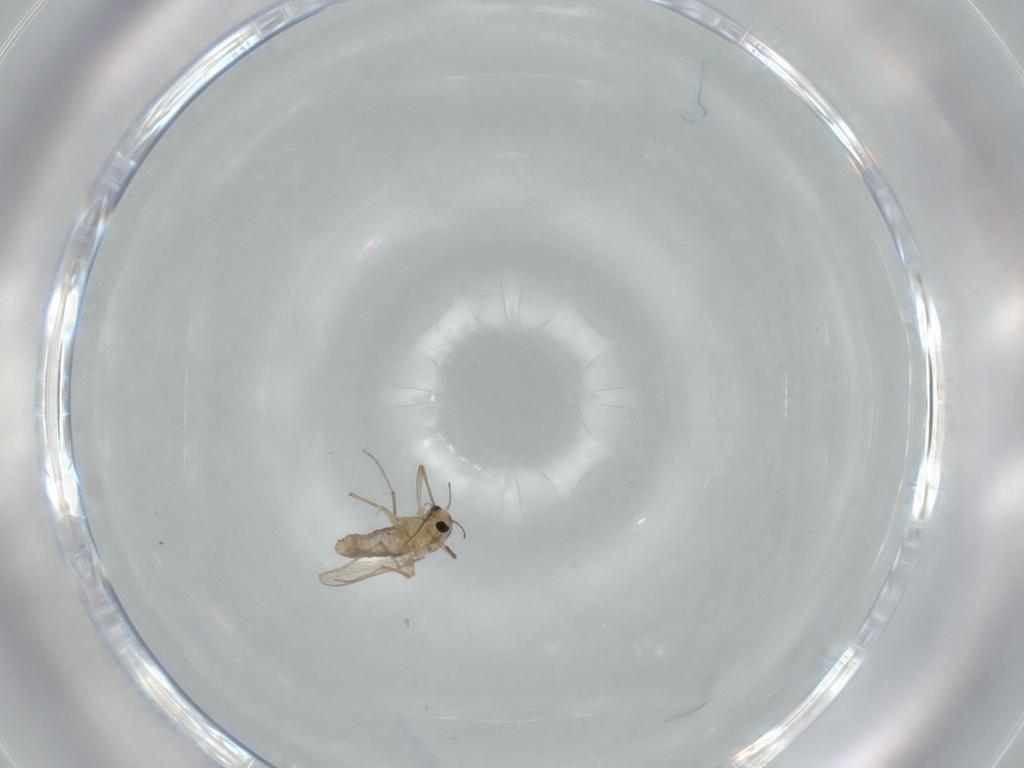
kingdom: Animalia
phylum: Arthropoda
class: Insecta
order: Diptera
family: Chironomidae
